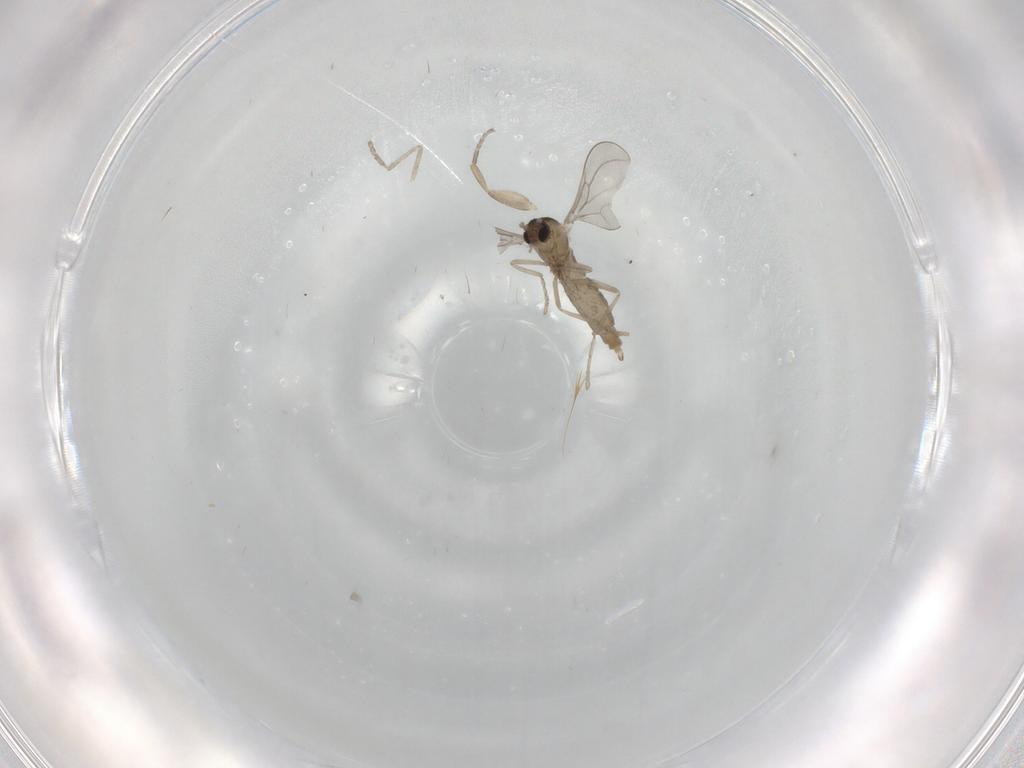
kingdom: Animalia
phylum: Arthropoda
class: Insecta
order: Diptera
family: Cecidomyiidae
